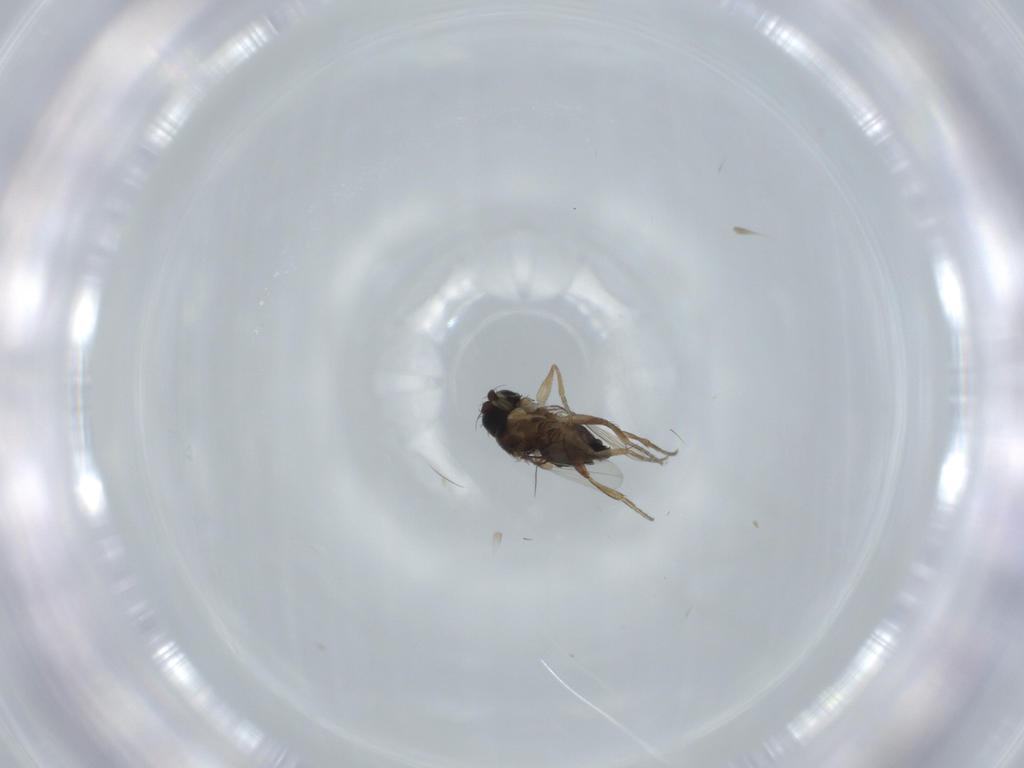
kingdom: Animalia
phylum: Arthropoda
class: Insecta
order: Diptera
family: Phoridae
